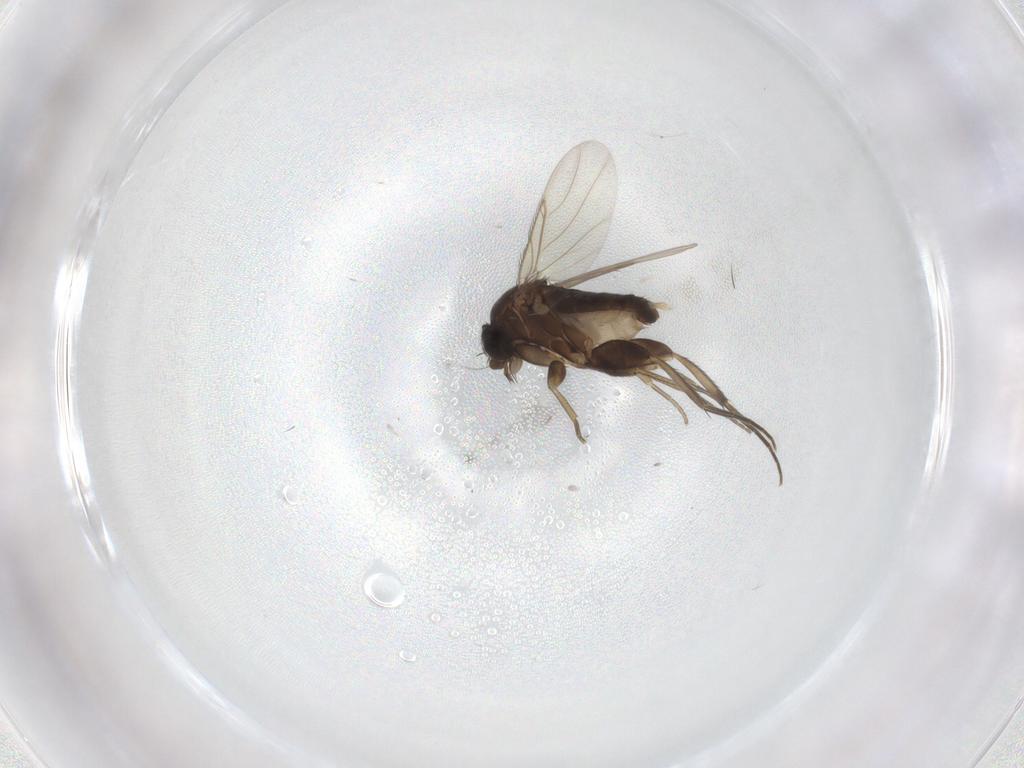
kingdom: Animalia
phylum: Arthropoda
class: Insecta
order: Diptera
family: Phoridae
